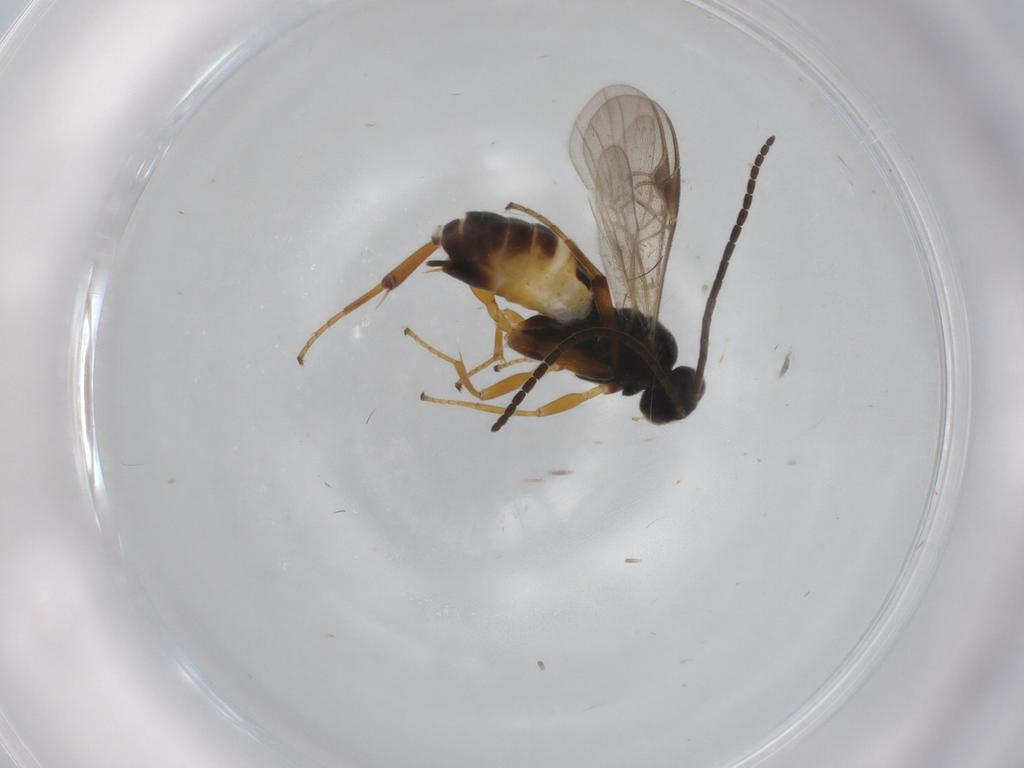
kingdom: Animalia
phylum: Arthropoda
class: Insecta
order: Hymenoptera
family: Braconidae
